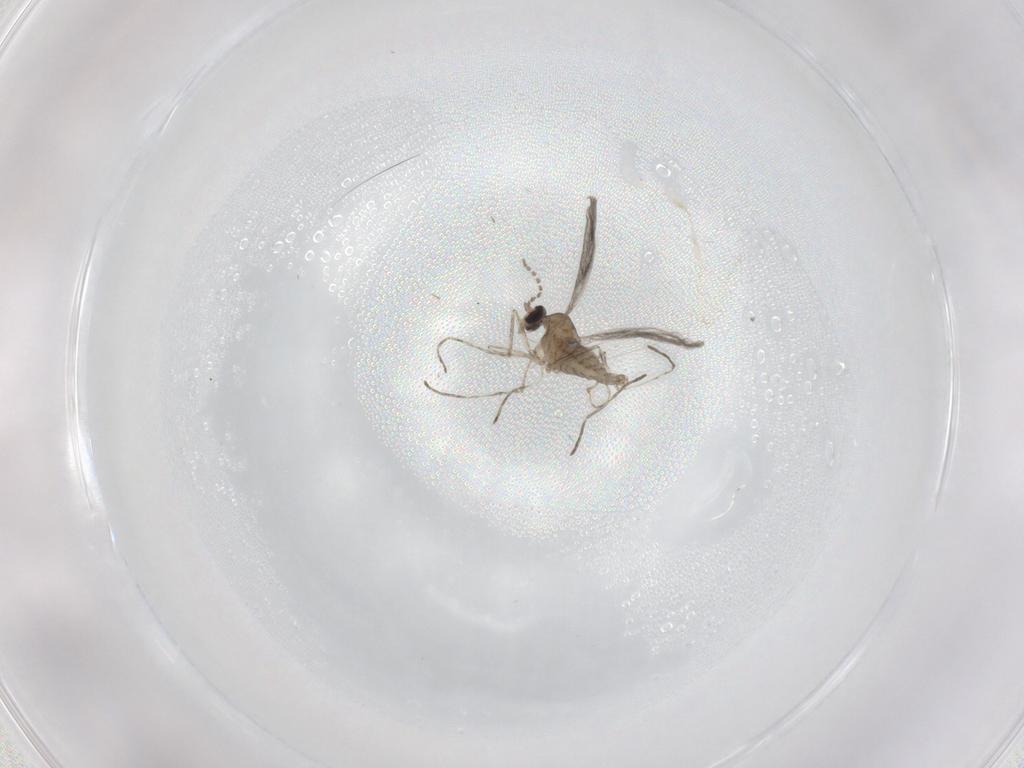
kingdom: Animalia
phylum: Arthropoda
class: Insecta
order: Diptera
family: Cecidomyiidae
